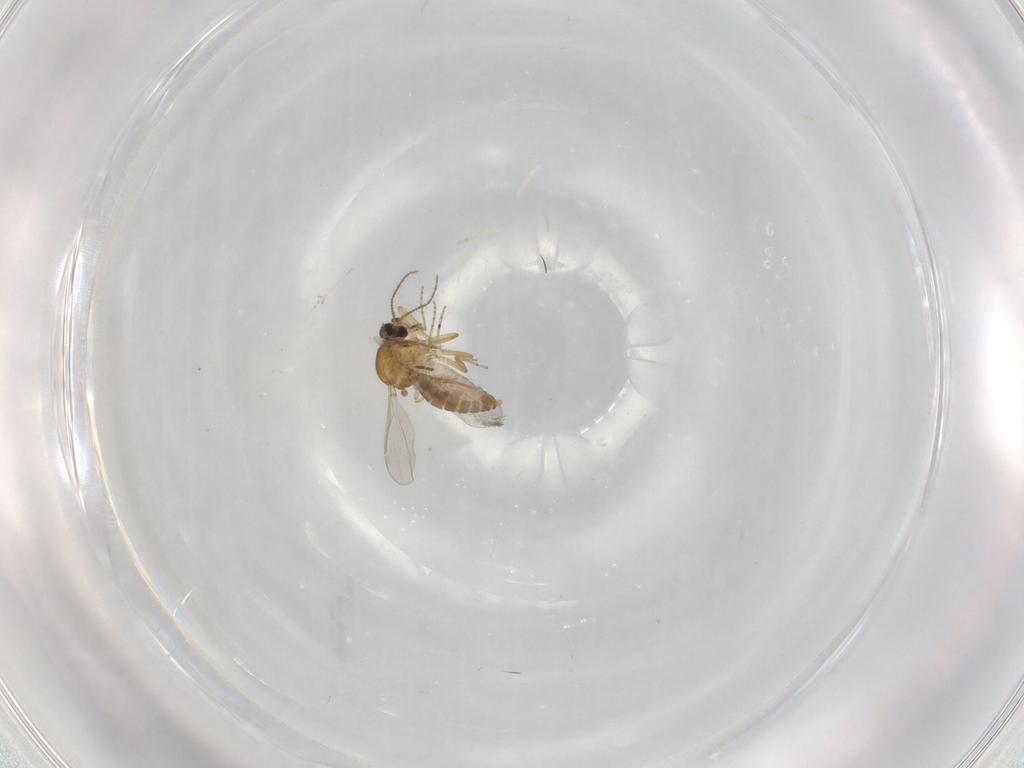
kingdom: Animalia
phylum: Arthropoda
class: Insecta
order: Diptera
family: Sciaridae
